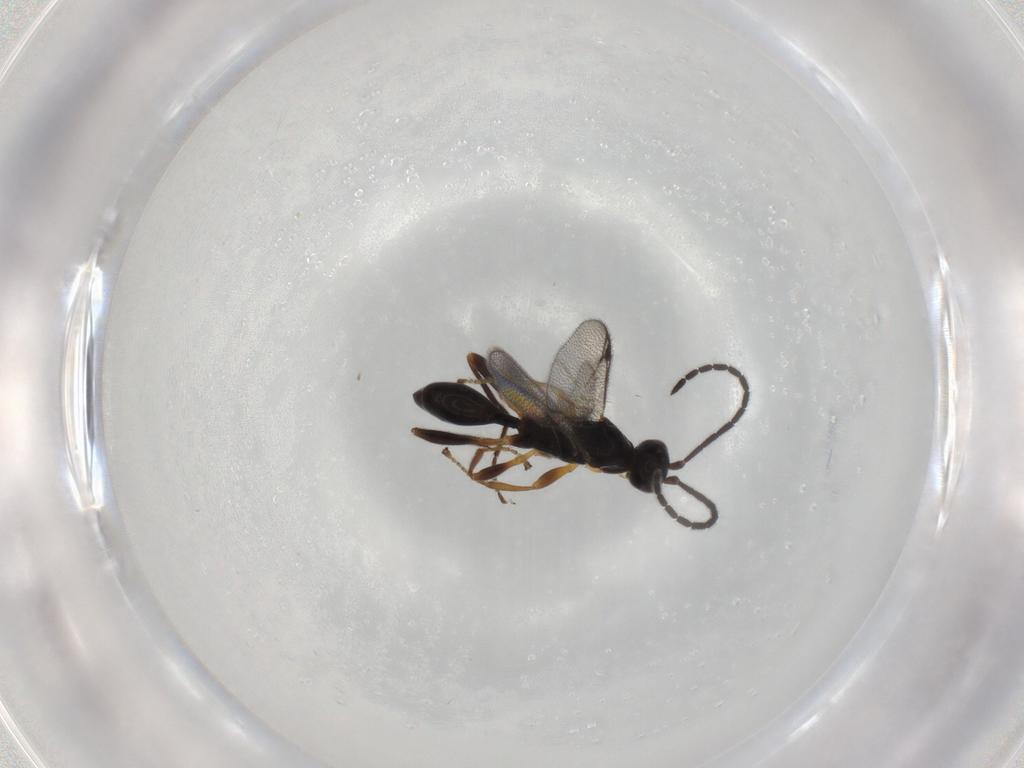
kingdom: Animalia
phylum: Arthropoda
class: Insecta
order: Hymenoptera
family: Proctotrupidae
